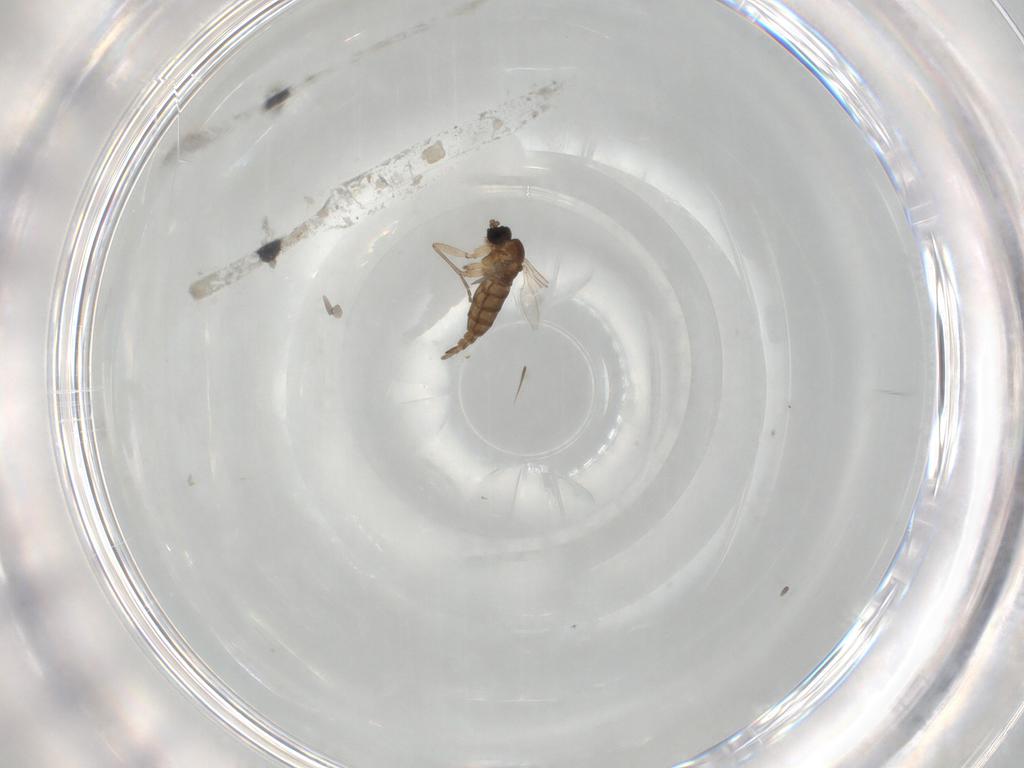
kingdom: Animalia
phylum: Arthropoda
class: Insecta
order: Diptera
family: Sciaridae
